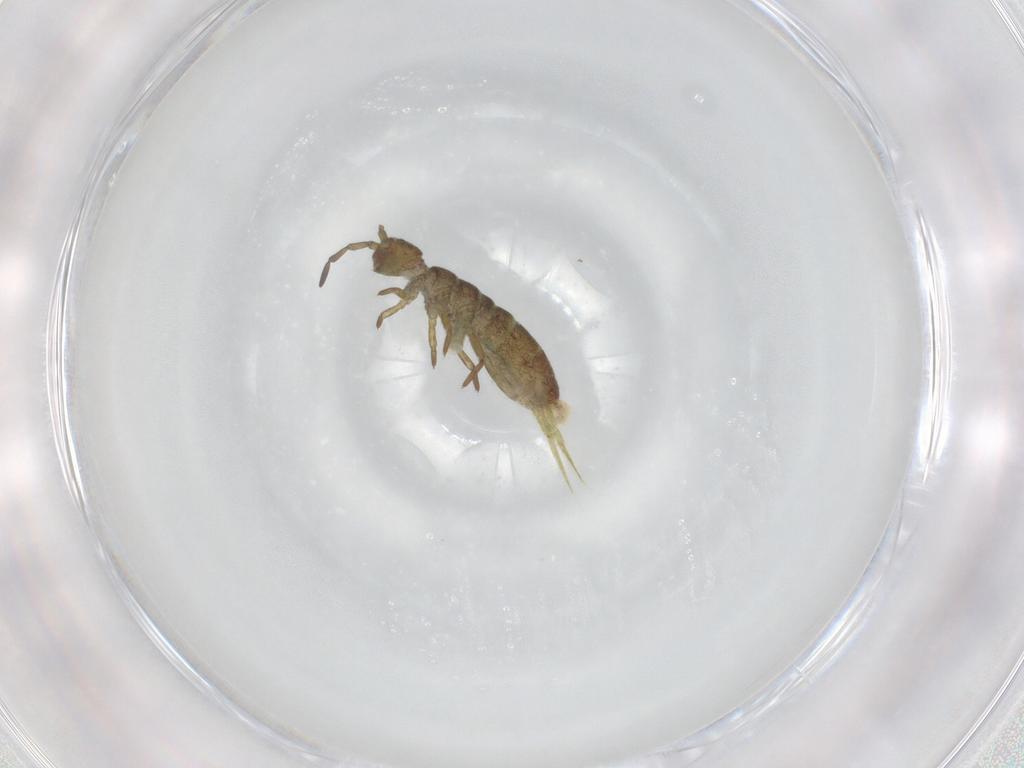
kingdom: Animalia
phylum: Arthropoda
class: Collembola
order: Entomobryomorpha
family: Isotomidae
